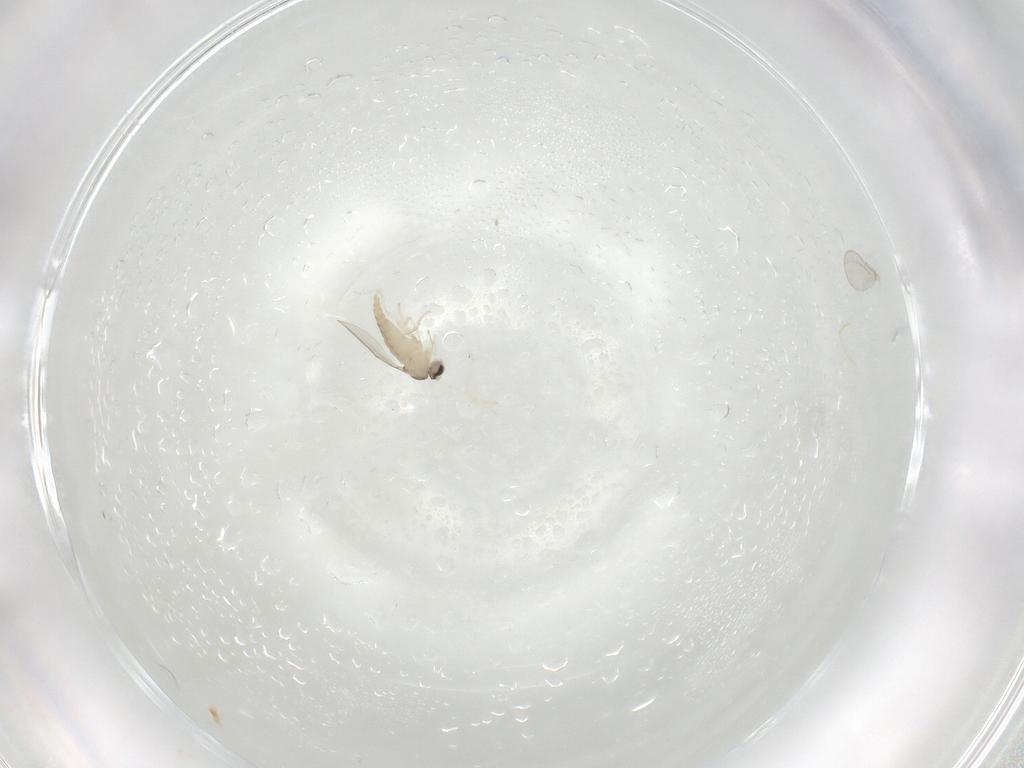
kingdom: Animalia
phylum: Arthropoda
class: Insecta
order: Diptera
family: Cecidomyiidae
